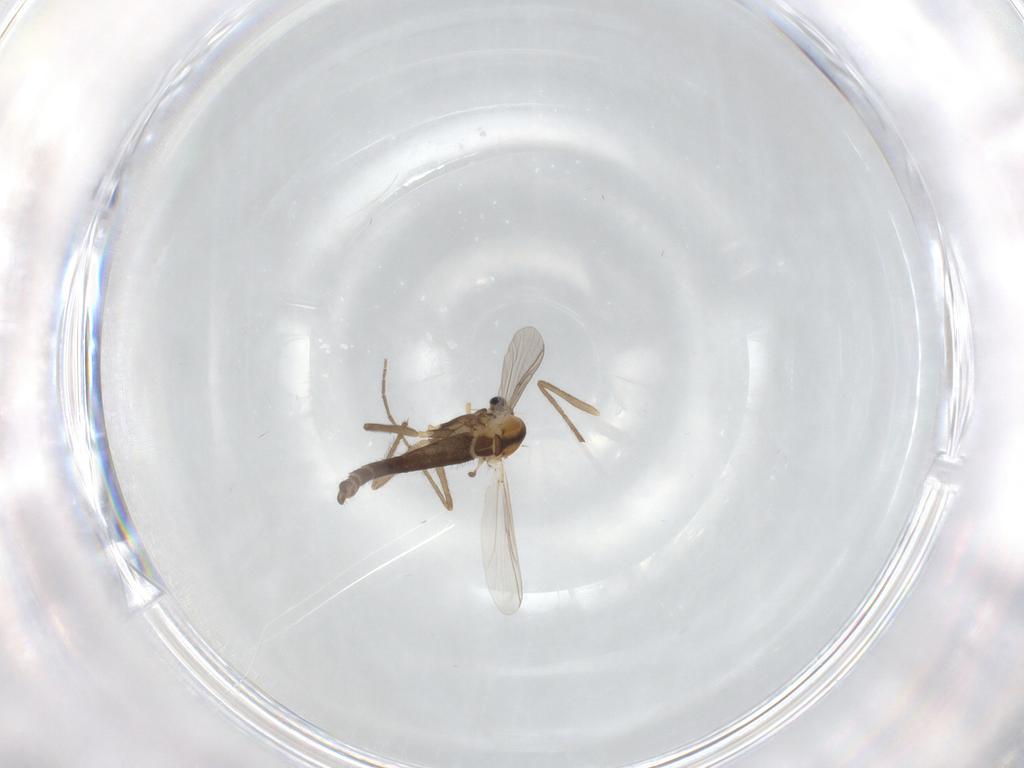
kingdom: Animalia
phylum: Arthropoda
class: Insecta
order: Diptera
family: Chironomidae
